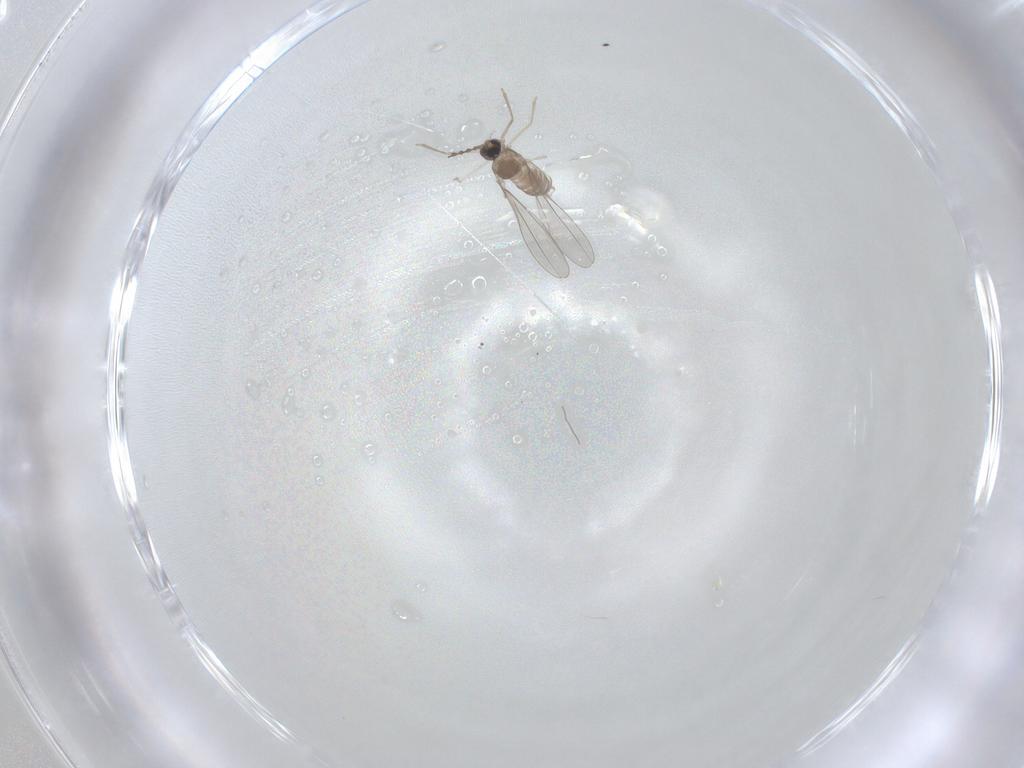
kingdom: Animalia
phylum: Arthropoda
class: Insecta
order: Diptera
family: Cecidomyiidae
